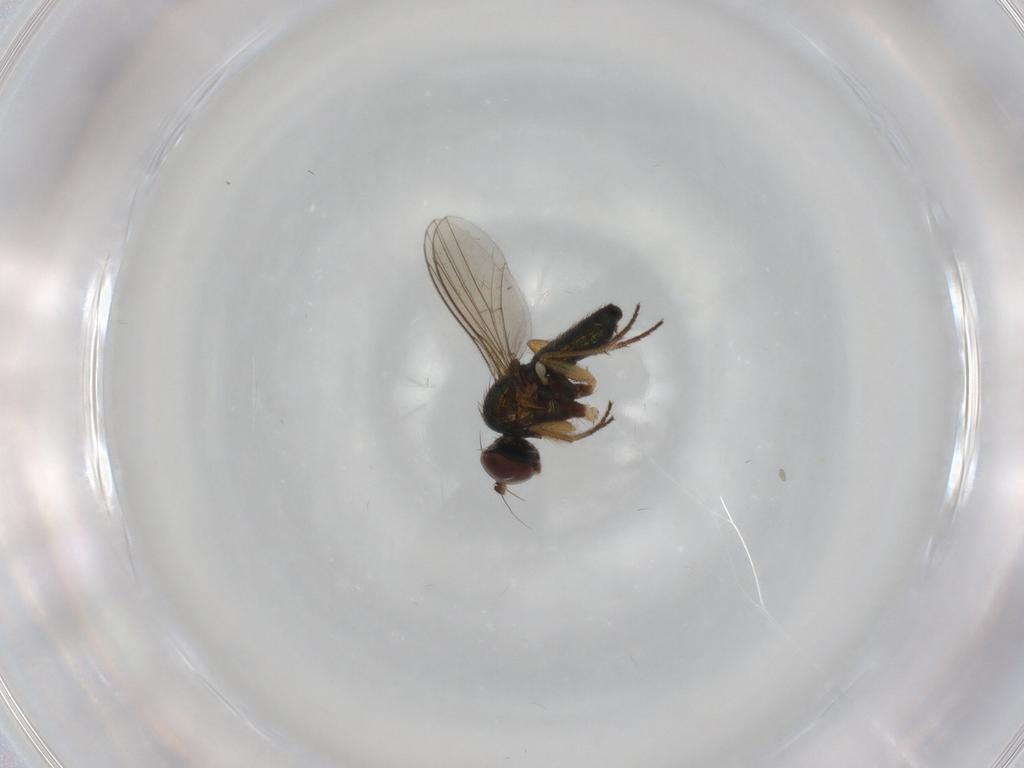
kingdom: Animalia
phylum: Arthropoda
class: Insecta
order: Diptera
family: Dolichopodidae
